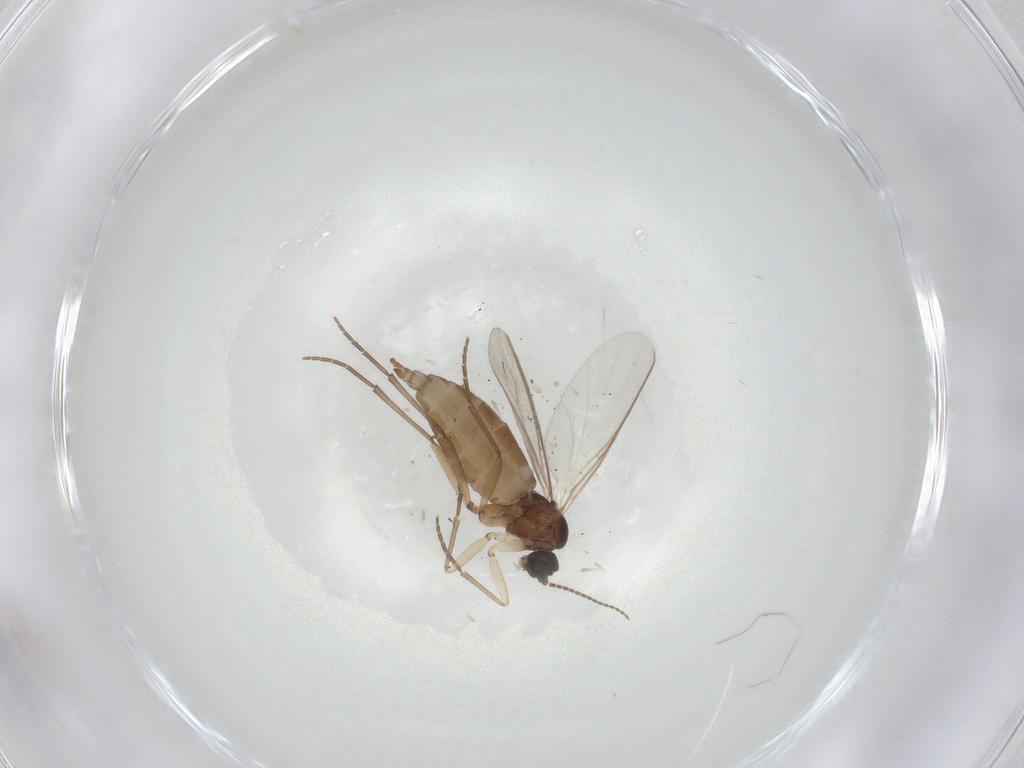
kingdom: Animalia
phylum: Arthropoda
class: Insecta
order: Diptera
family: Sciaridae
